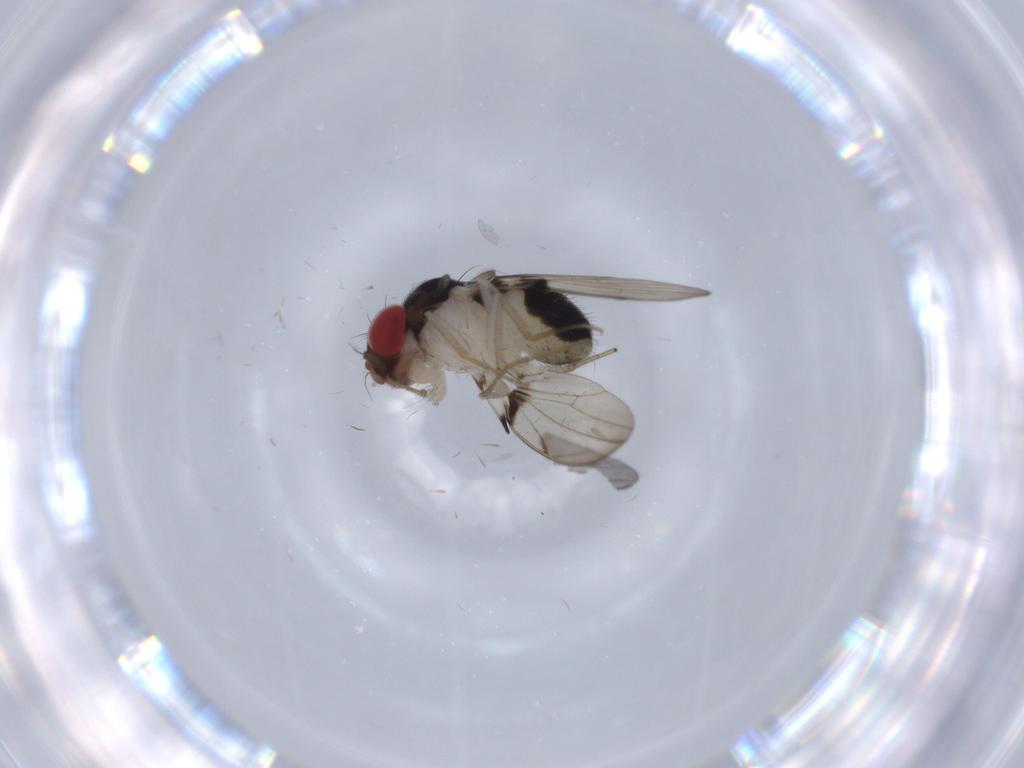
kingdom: Animalia
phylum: Arthropoda
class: Insecta
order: Diptera
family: Drosophilidae
